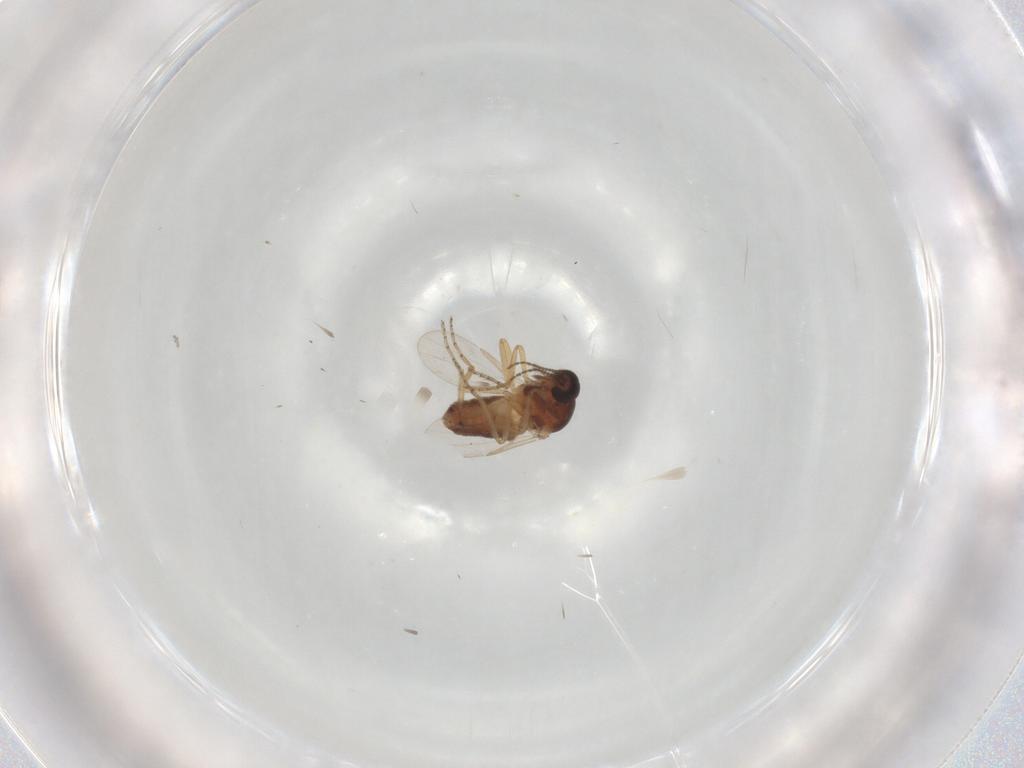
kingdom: Animalia
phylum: Arthropoda
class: Insecta
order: Diptera
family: Ceratopogonidae
